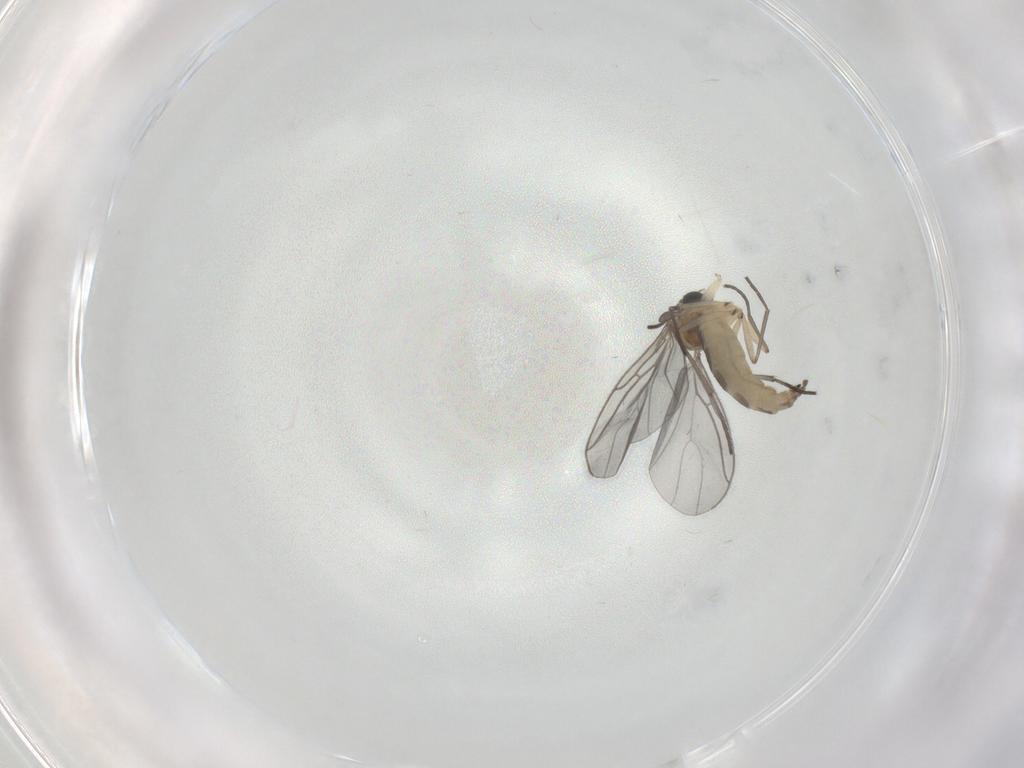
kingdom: Animalia
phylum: Arthropoda
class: Insecta
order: Diptera
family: Sciaridae
